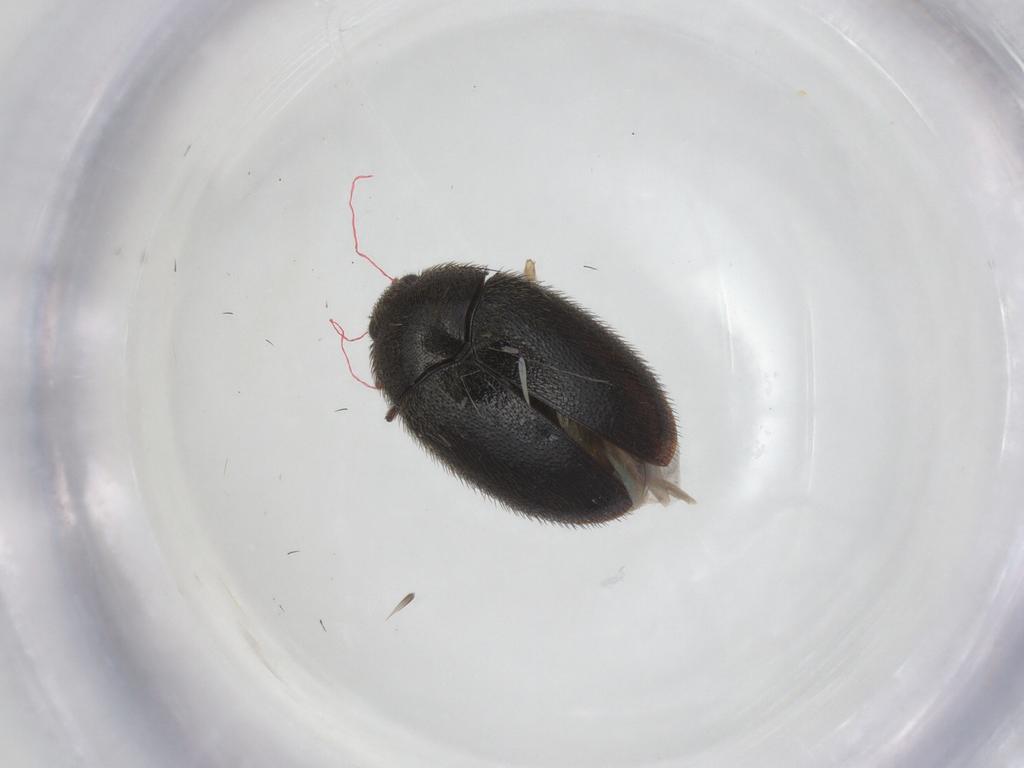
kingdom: Animalia
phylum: Arthropoda
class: Insecta
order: Coleoptera
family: Dermestidae
